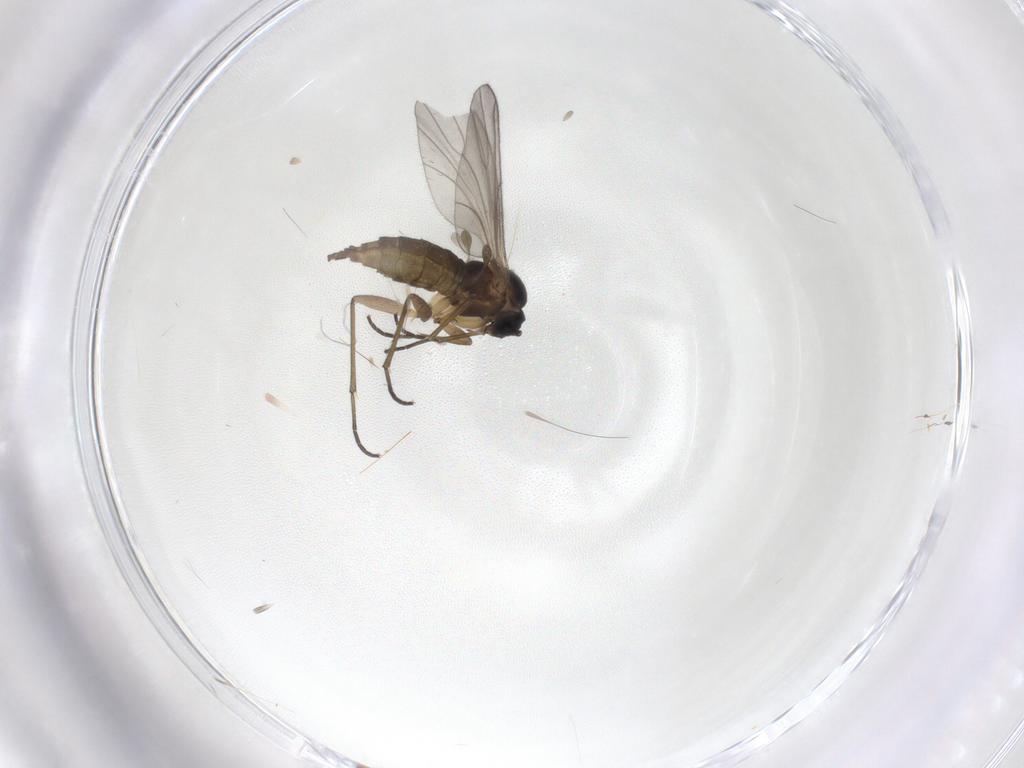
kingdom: Animalia
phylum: Arthropoda
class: Insecta
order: Diptera
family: Sciaridae
